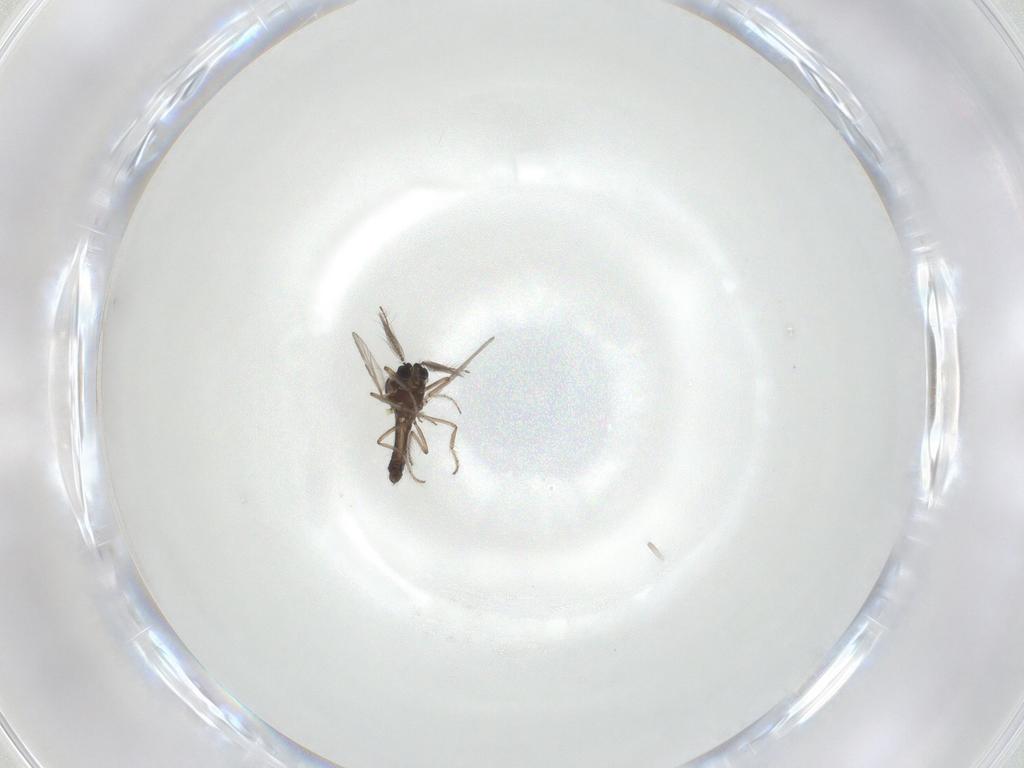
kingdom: Animalia
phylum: Arthropoda
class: Insecta
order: Diptera
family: Ceratopogonidae
